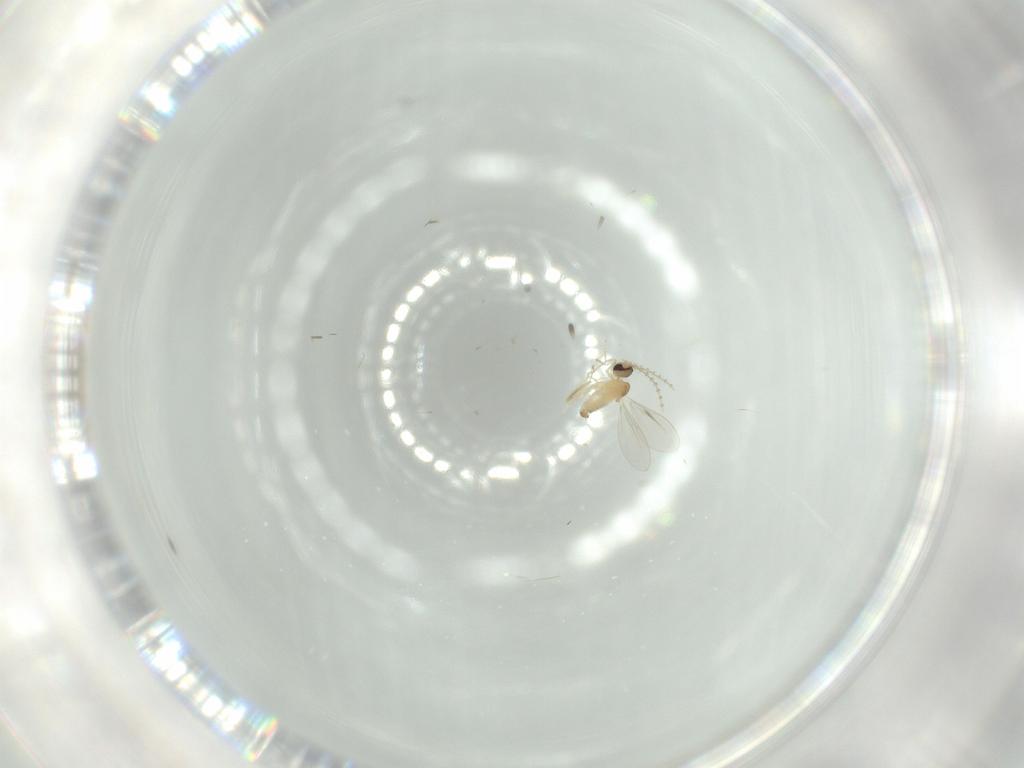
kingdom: Animalia
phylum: Arthropoda
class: Insecta
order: Diptera
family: Cecidomyiidae
